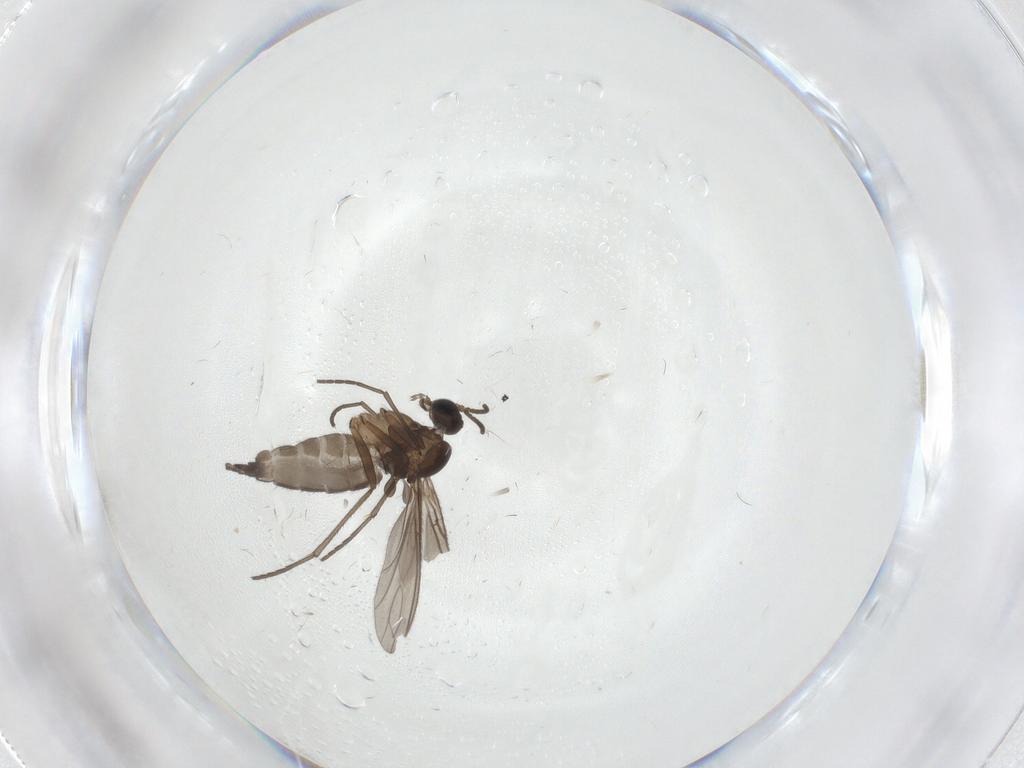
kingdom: Animalia
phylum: Arthropoda
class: Insecta
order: Diptera
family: Sciaridae
